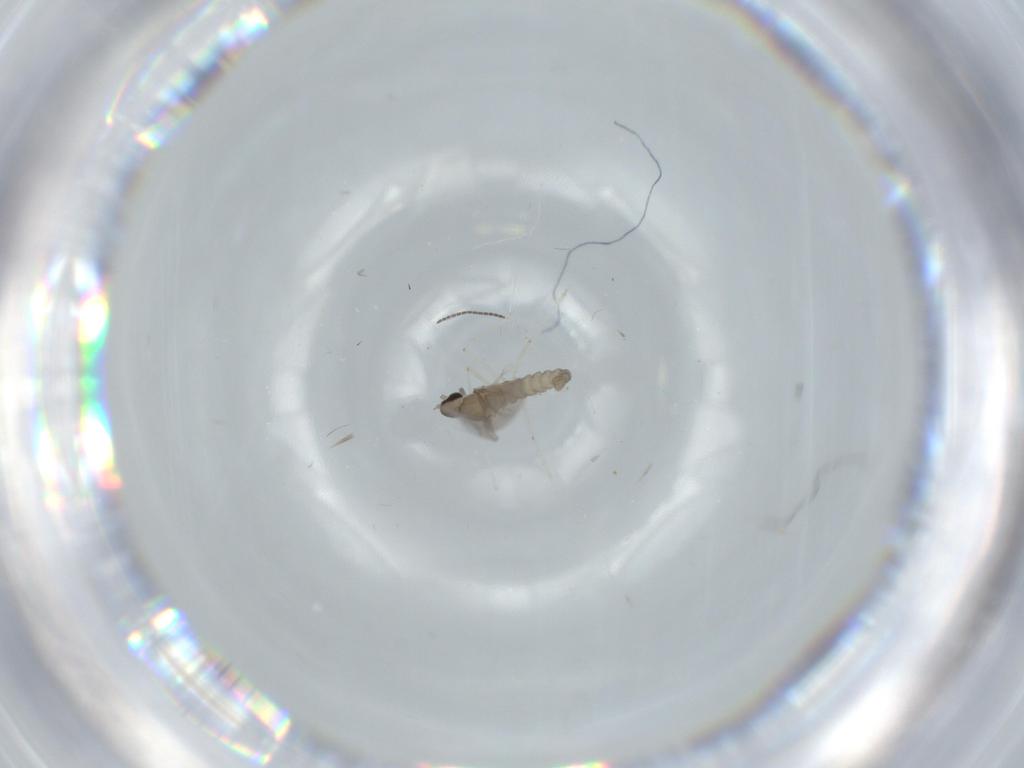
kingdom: Animalia
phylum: Arthropoda
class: Insecta
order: Diptera
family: Cecidomyiidae
